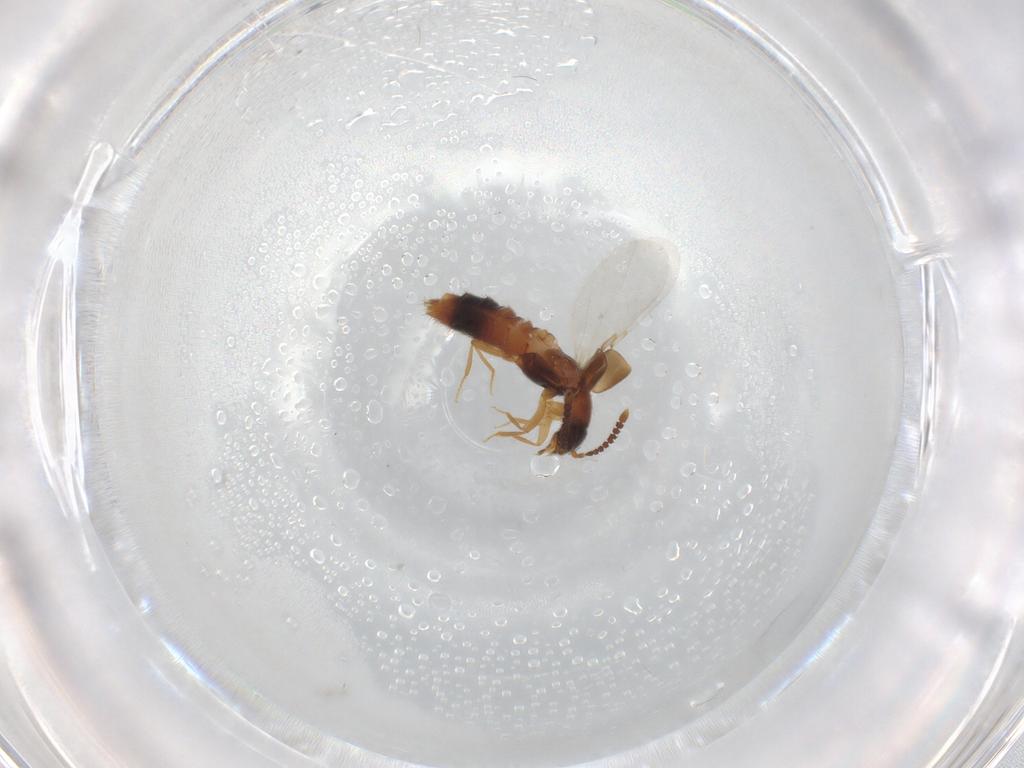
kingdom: Animalia
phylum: Arthropoda
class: Insecta
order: Coleoptera
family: Staphylinidae
